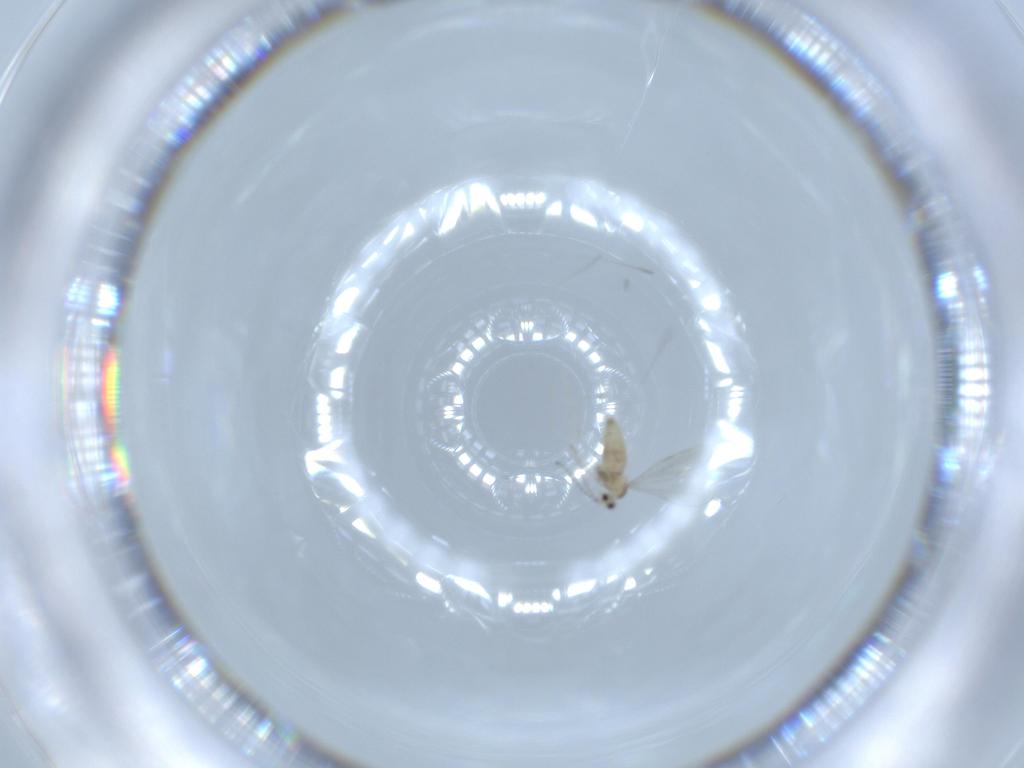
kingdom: Animalia
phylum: Arthropoda
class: Insecta
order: Diptera
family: Cecidomyiidae
